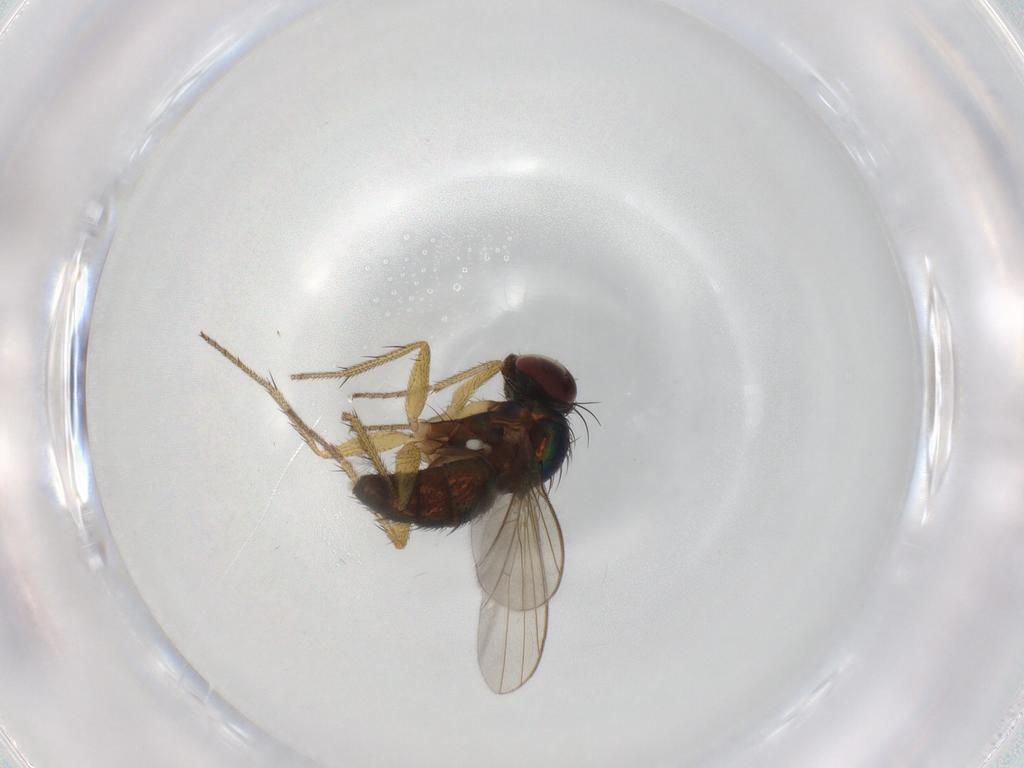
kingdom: Animalia
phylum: Arthropoda
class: Insecta
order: Diptera
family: Dolichopodidae
